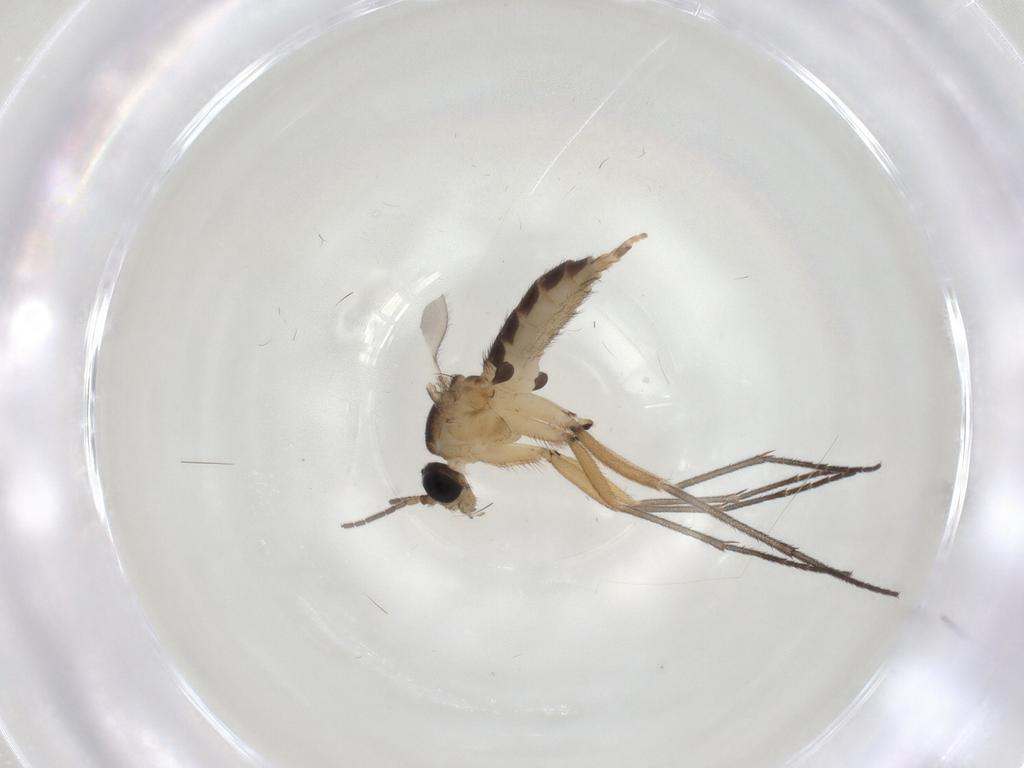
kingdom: Animalia
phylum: Arthropoda
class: Insecta
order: Diptera
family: Sciaridae
